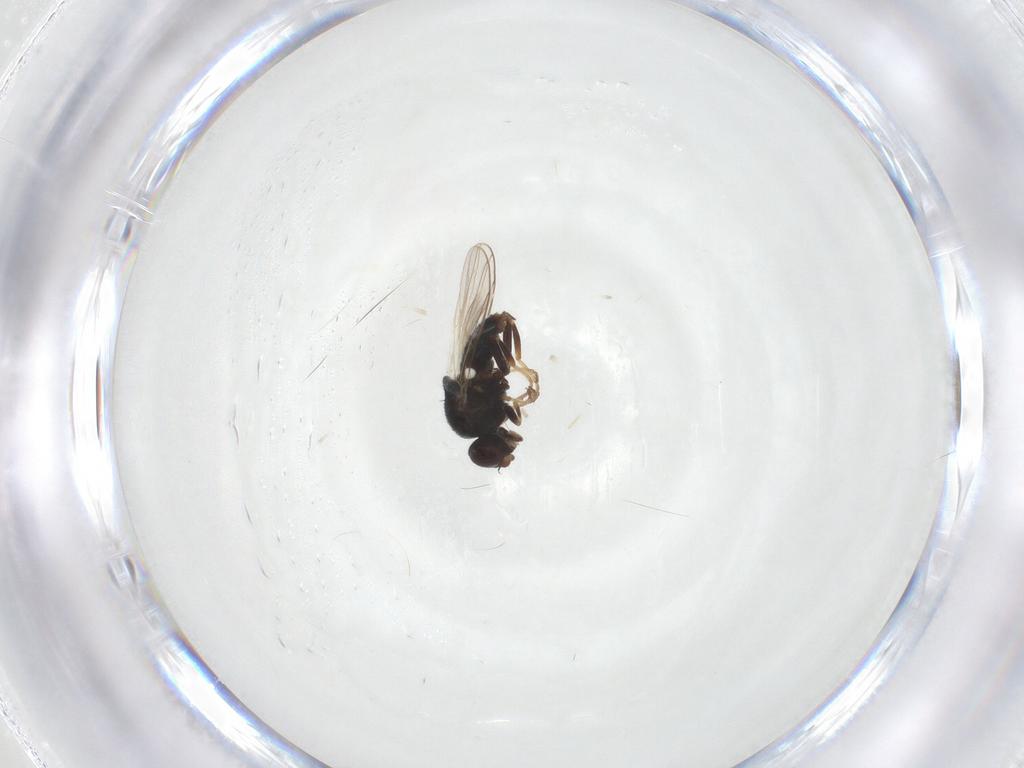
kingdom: Animalia
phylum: Arthropoda
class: Insecta
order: Diptera
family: Chloropidae
